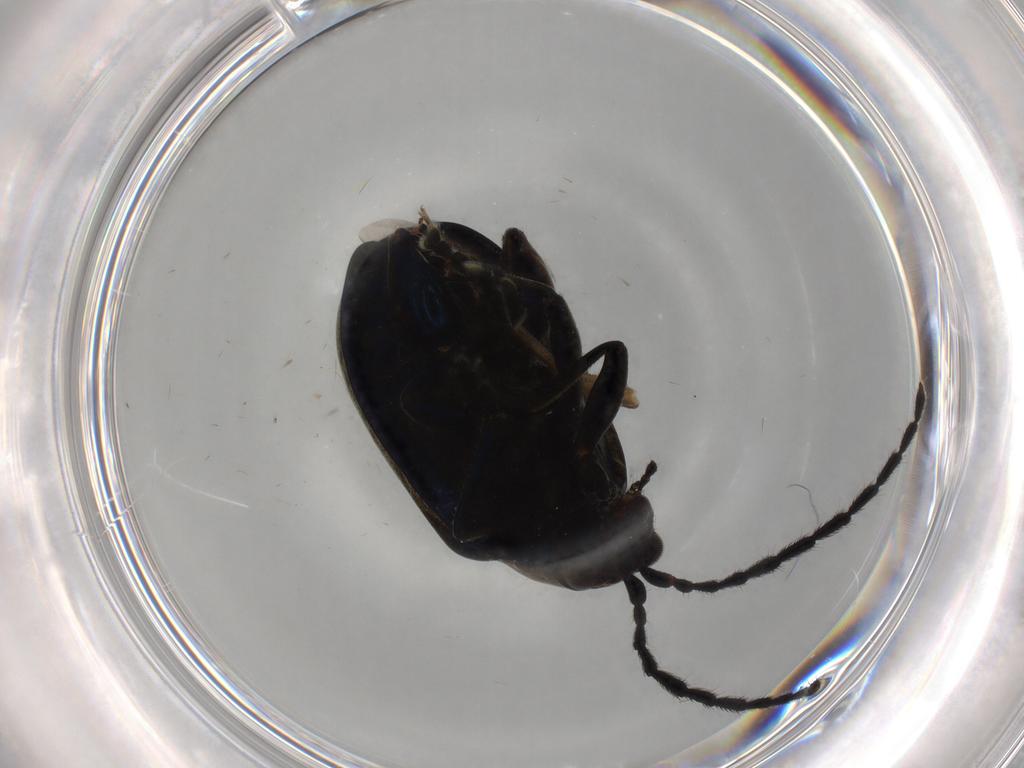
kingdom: Animalia
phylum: Arthropoda
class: Insecta
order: Coleoptera
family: Chrysomelidae
